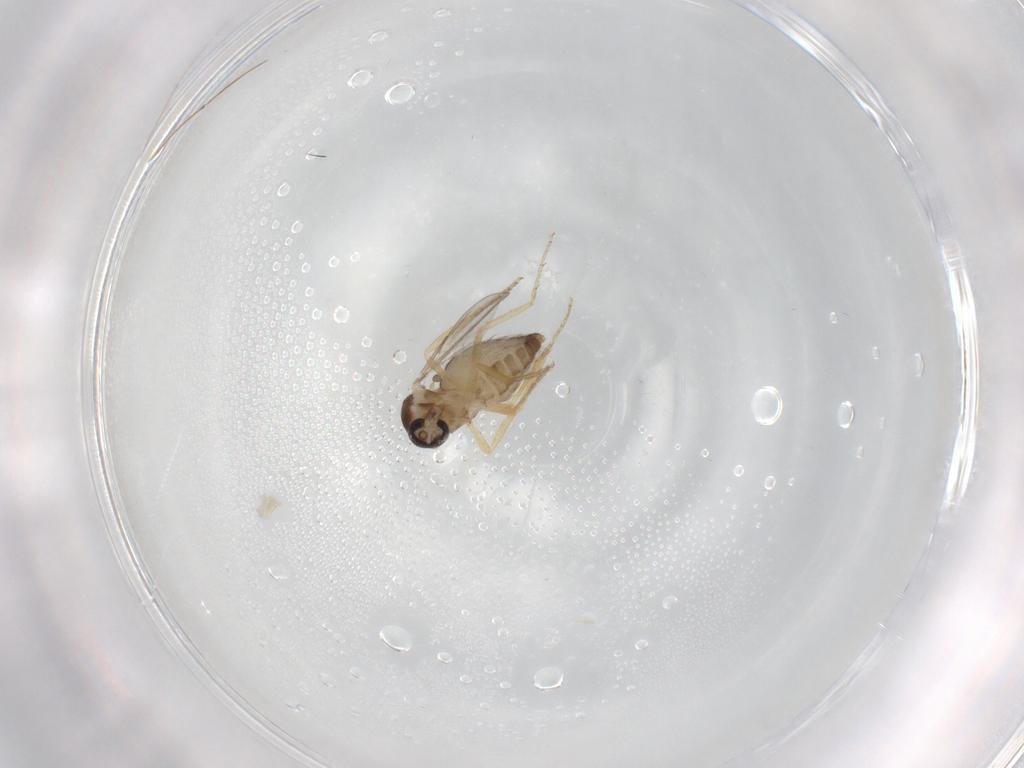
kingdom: Animalia
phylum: Arthropoda
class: Insecta
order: Diptera
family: Ceratopogonidae
